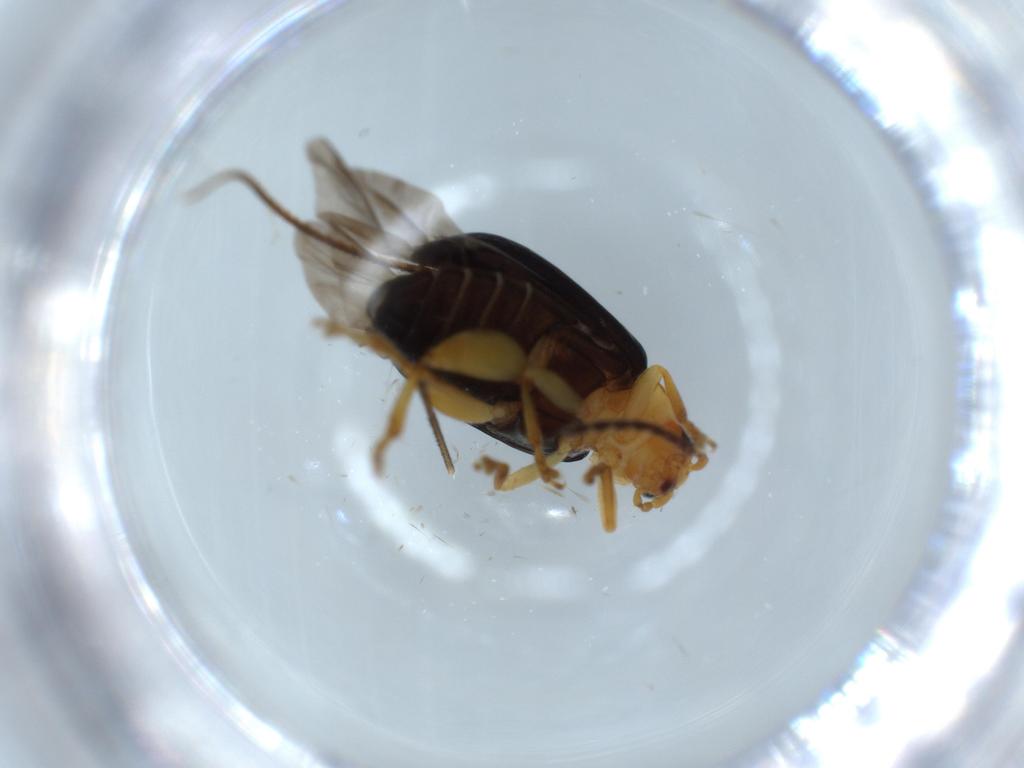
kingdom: Animalia
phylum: Arthropoda
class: Insecta
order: Coleoptera
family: Chrysomelidae
